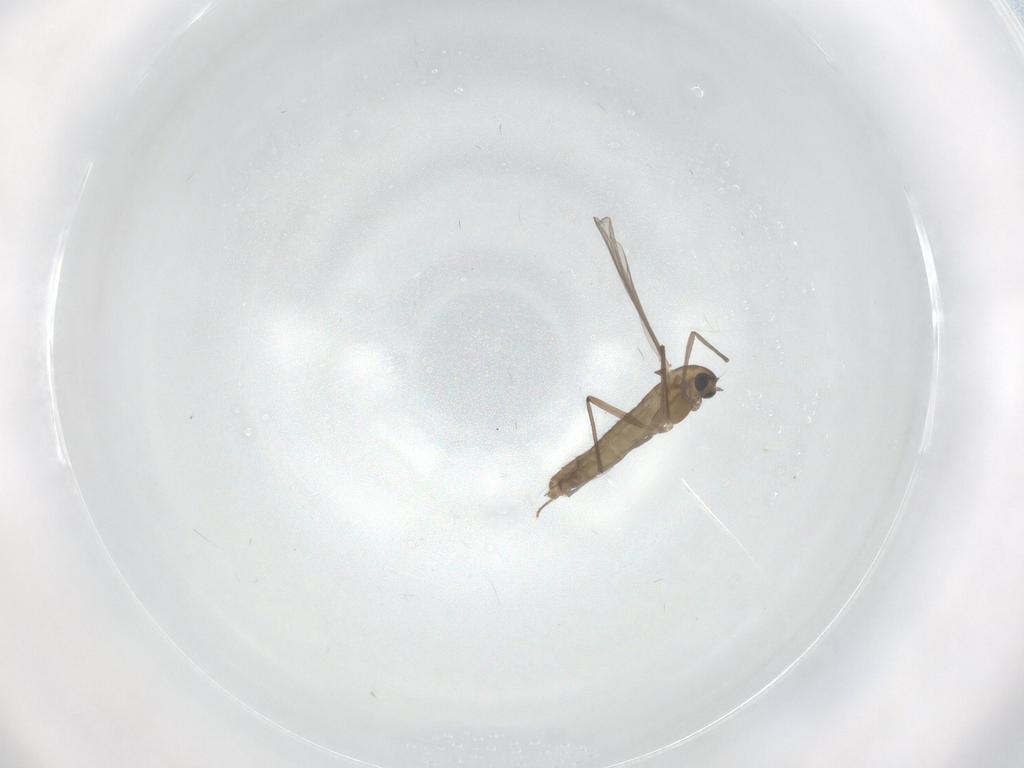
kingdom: Animalia
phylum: Arthropoda
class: Insecta
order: Diptera
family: Chironomidae
